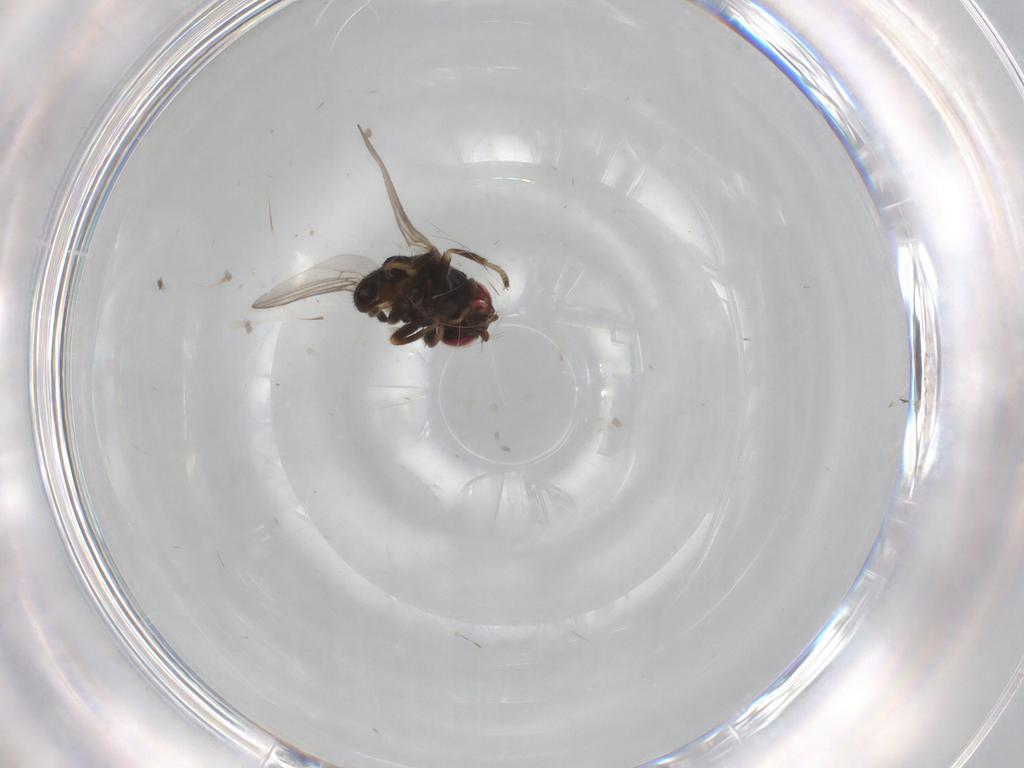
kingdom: Animalia
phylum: Arthropoda
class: Insecta
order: Diptera
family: Chloropidae
